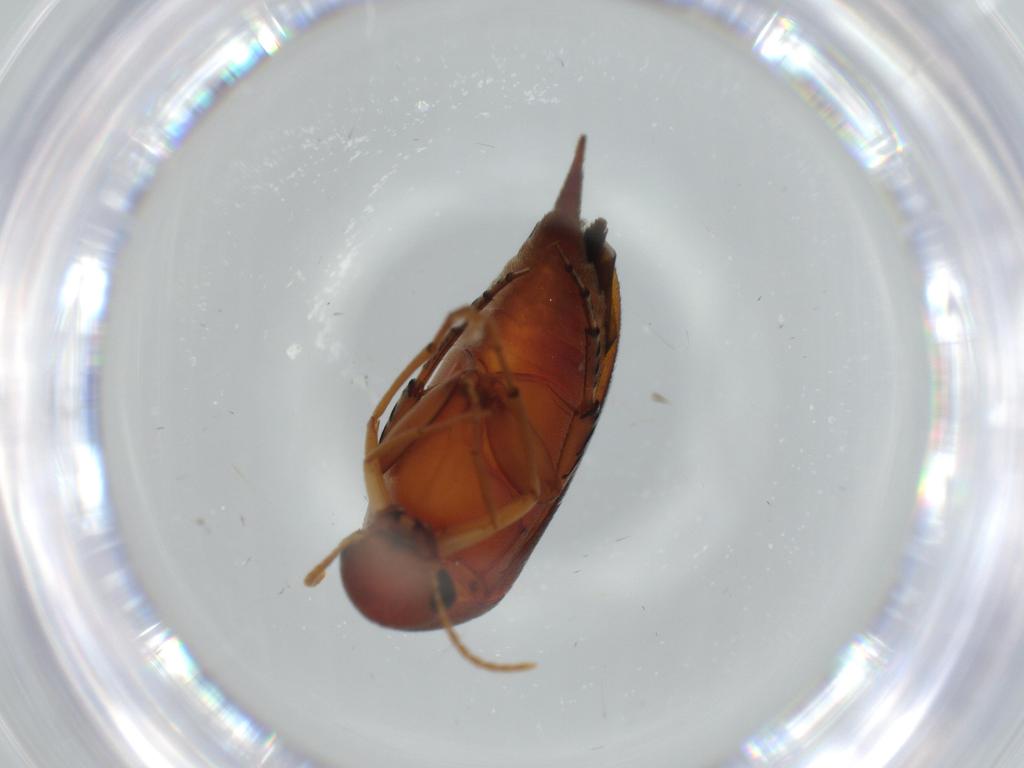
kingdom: Animalia
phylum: Arthropoda
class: Insecta
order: Coleoptera
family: Mordellidae
